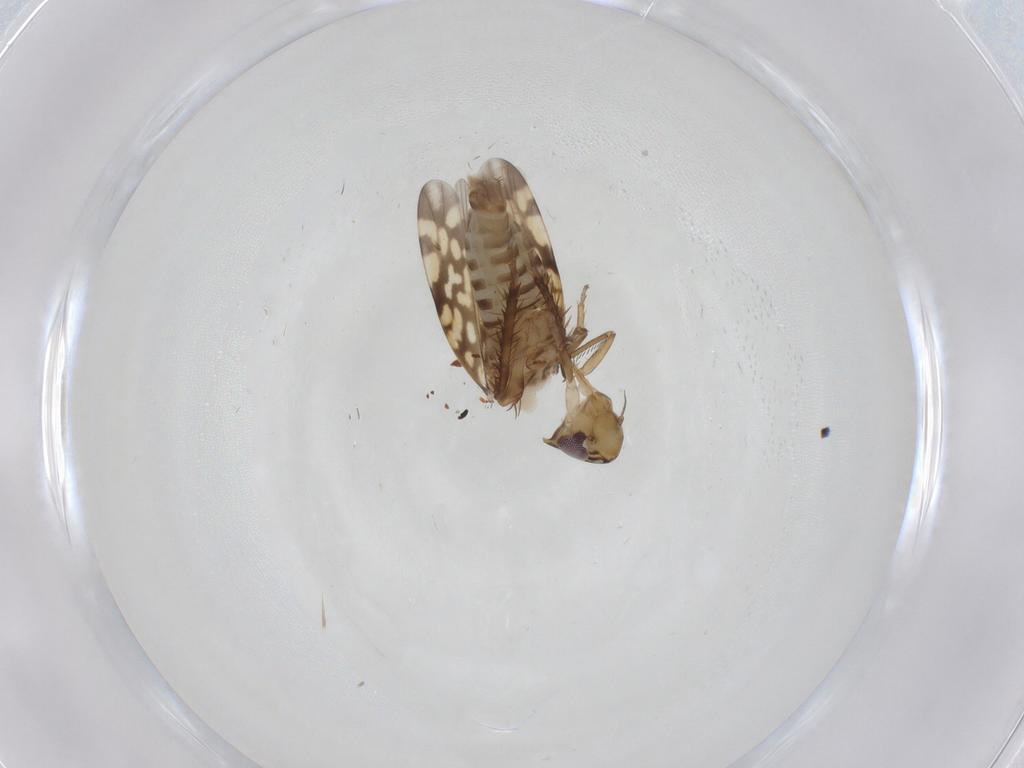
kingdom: Animalia
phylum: Arthropoda
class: Insecta
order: Hemiptera
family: Cicadellidae
